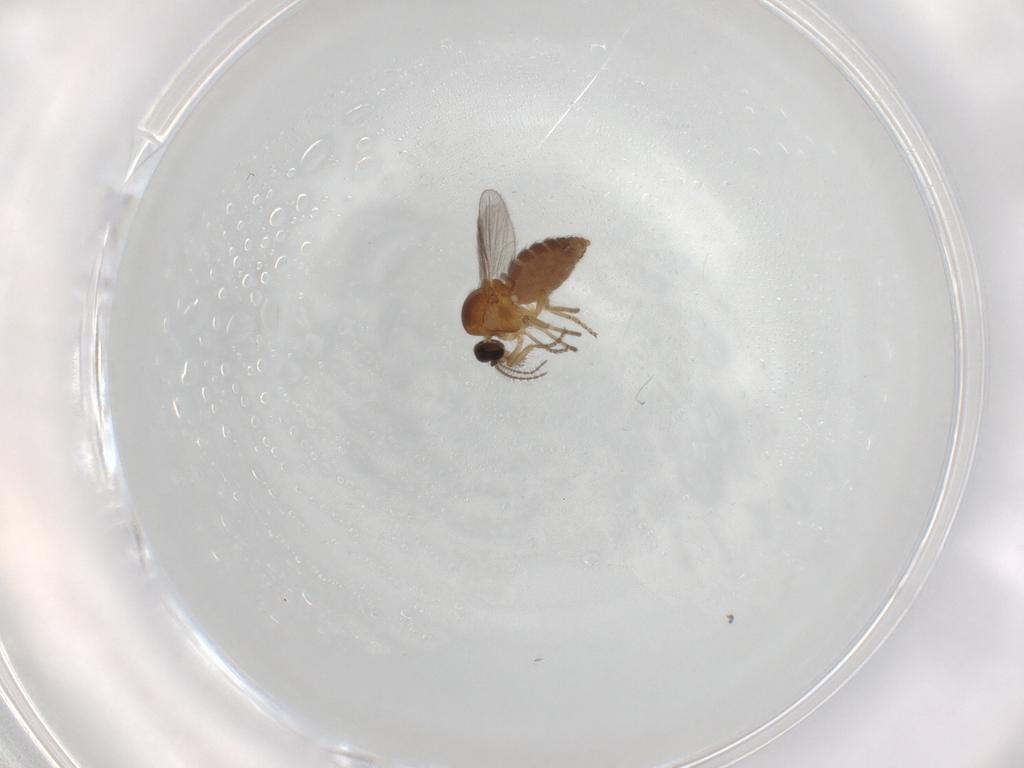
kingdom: Animalia
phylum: Arthropoda
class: Insecta
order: Diptera
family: Ceratopogonidae
